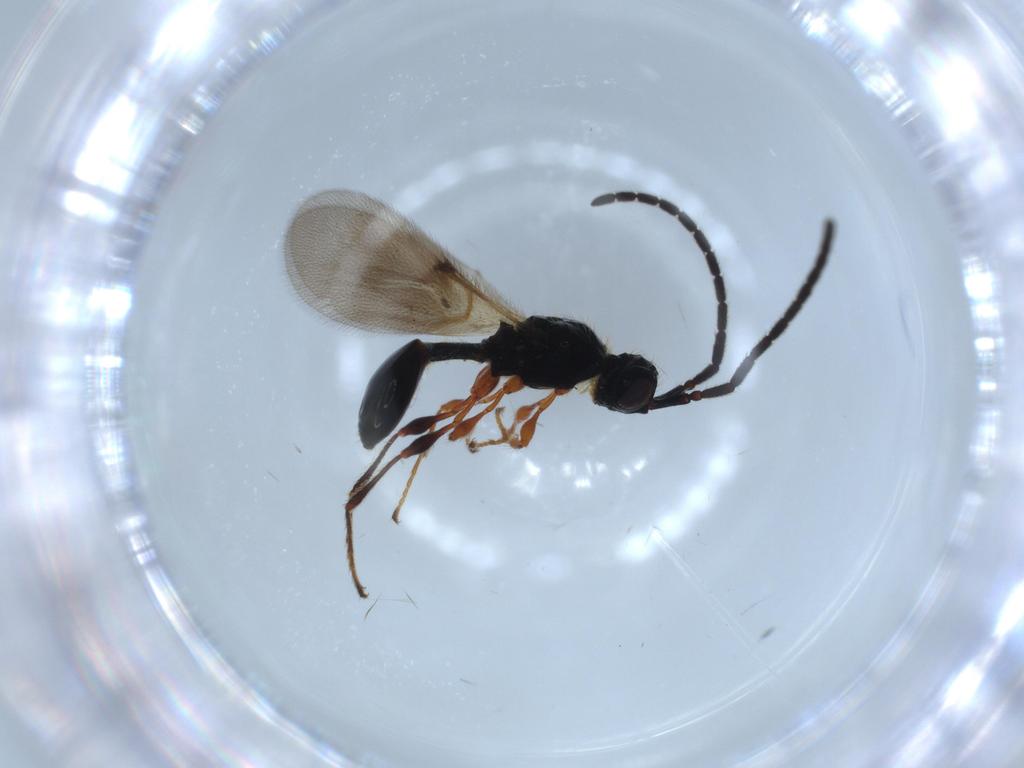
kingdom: Animalia
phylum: Arthropoda
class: Insecta
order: Hymenoptera
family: Diapriidae
